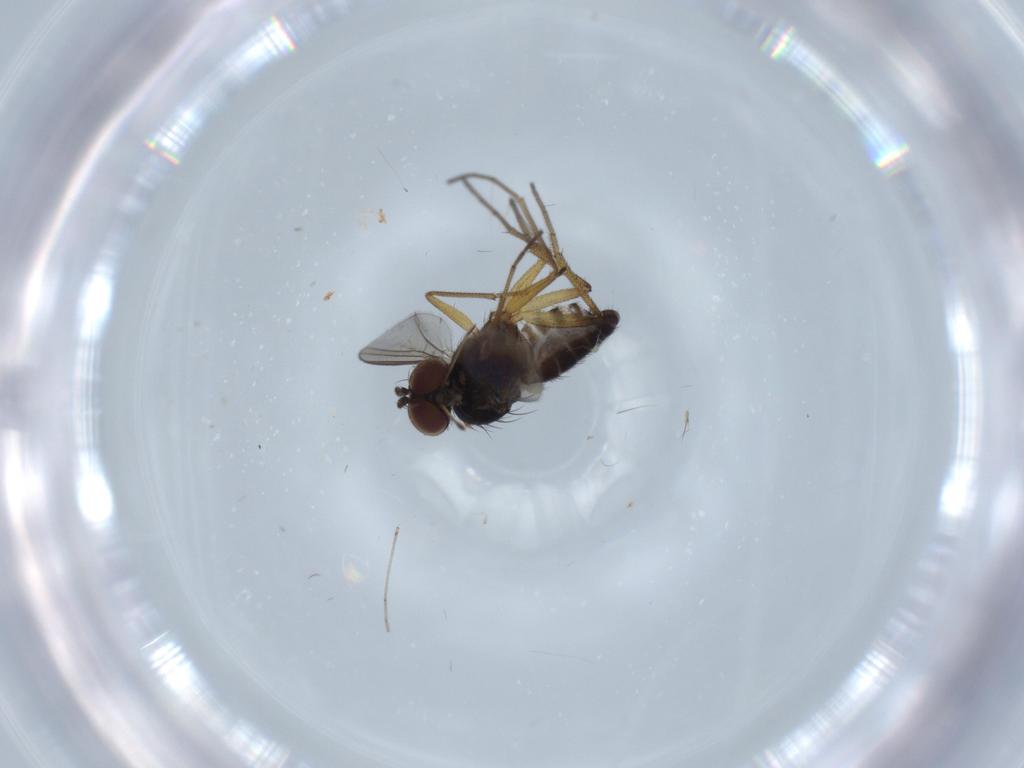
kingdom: Animalia
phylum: Arthropoda
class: Insecta
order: Diptera
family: Dolichopodidae
